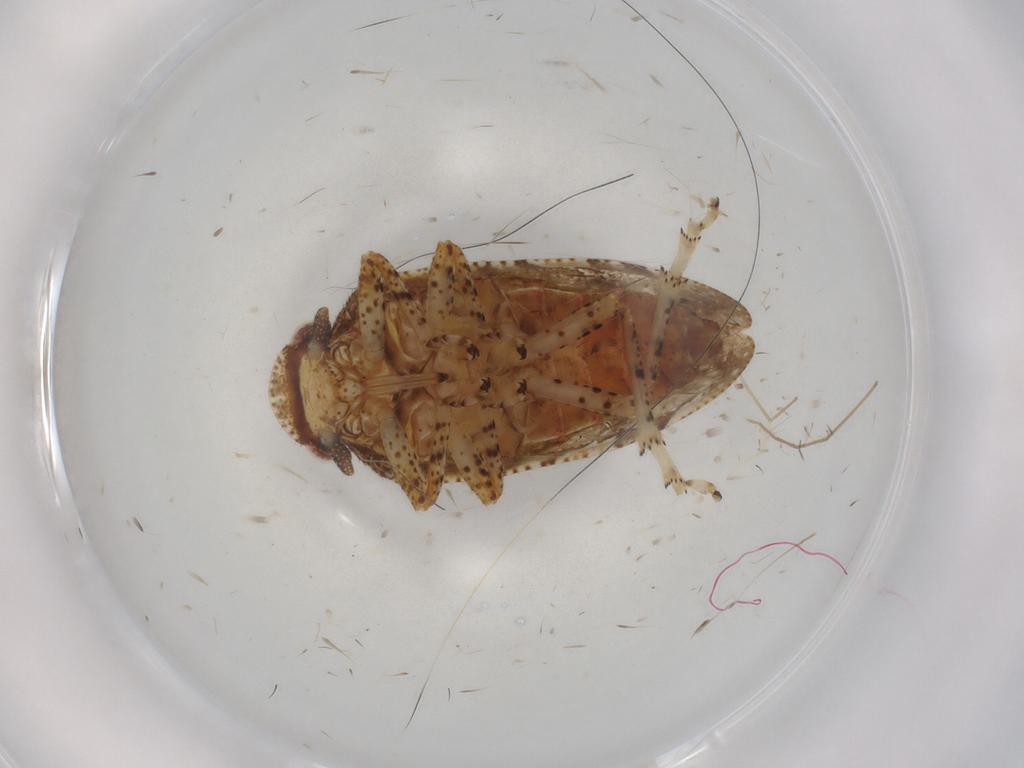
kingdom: Animalia
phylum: Arthropoda
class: Insecta
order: Hemiptera
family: Tettigometridae
